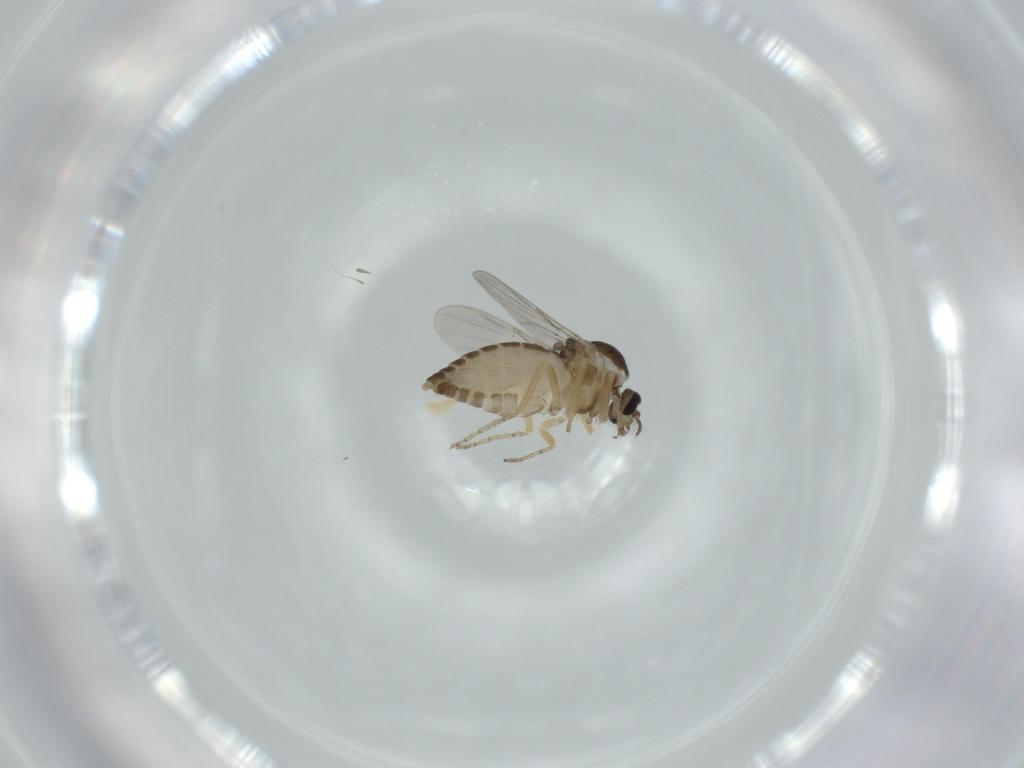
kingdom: Animalia
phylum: Arthropoda
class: Insecta
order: Diptera
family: Ceratopogonidae
